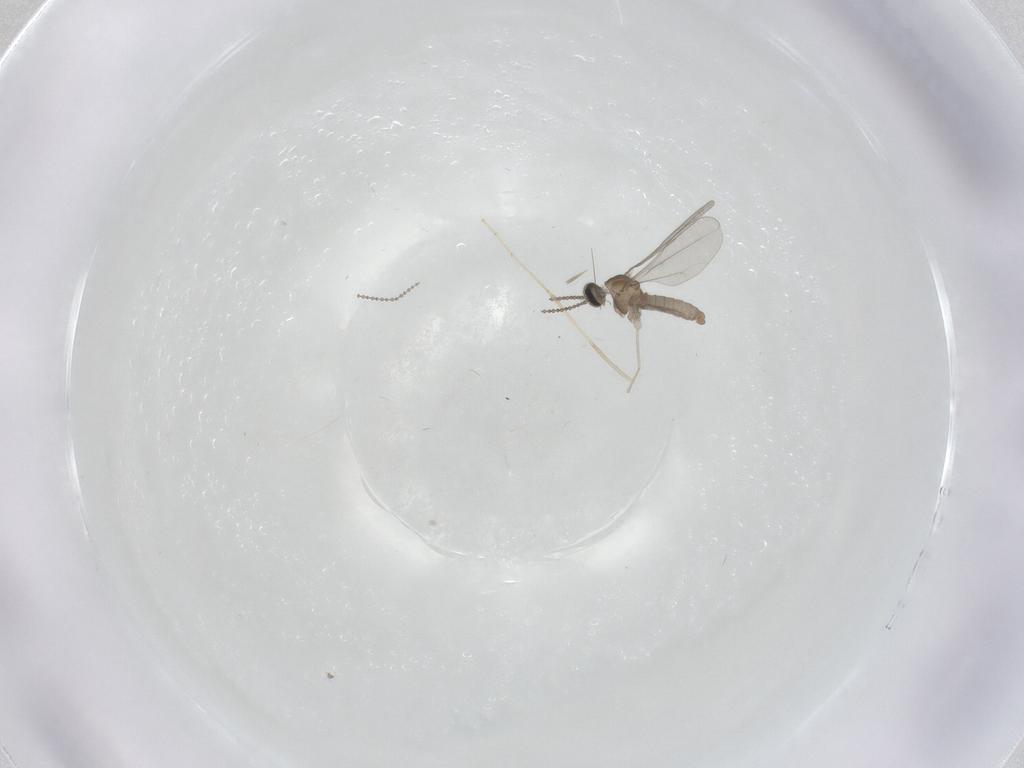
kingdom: Animalia
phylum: Arthropoda
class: Insecta
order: Diptera
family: Cecidomyiidae
